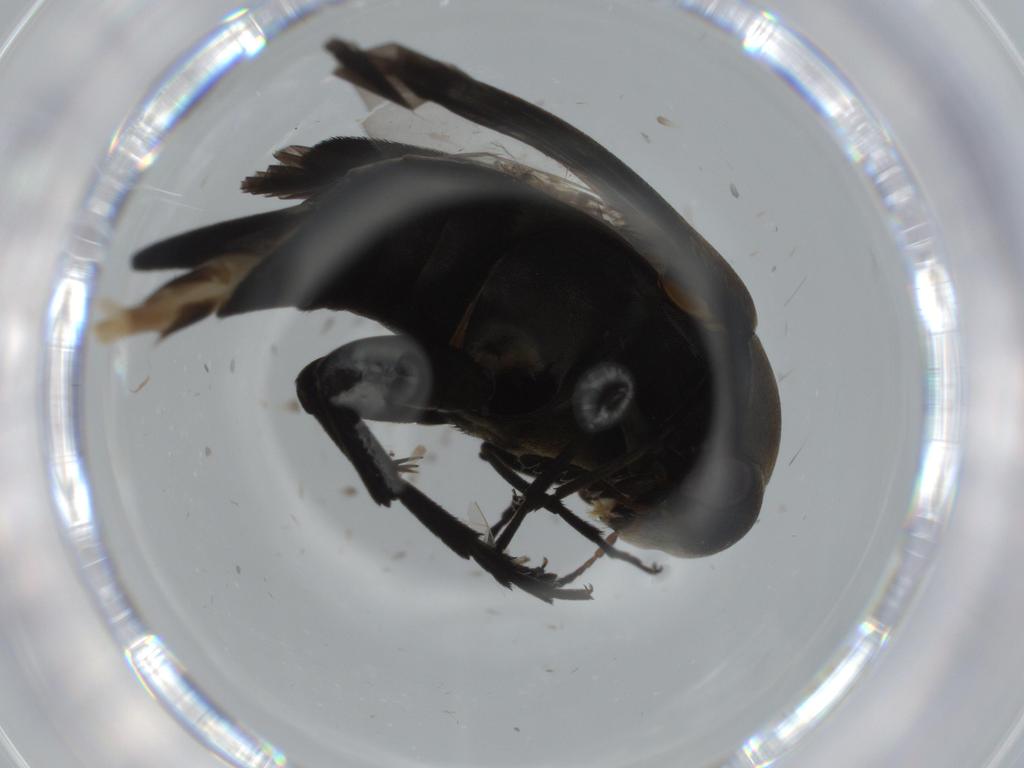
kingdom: Animalia
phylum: Arthropoda
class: Insecta
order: Coleoptera
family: Mordellidae
